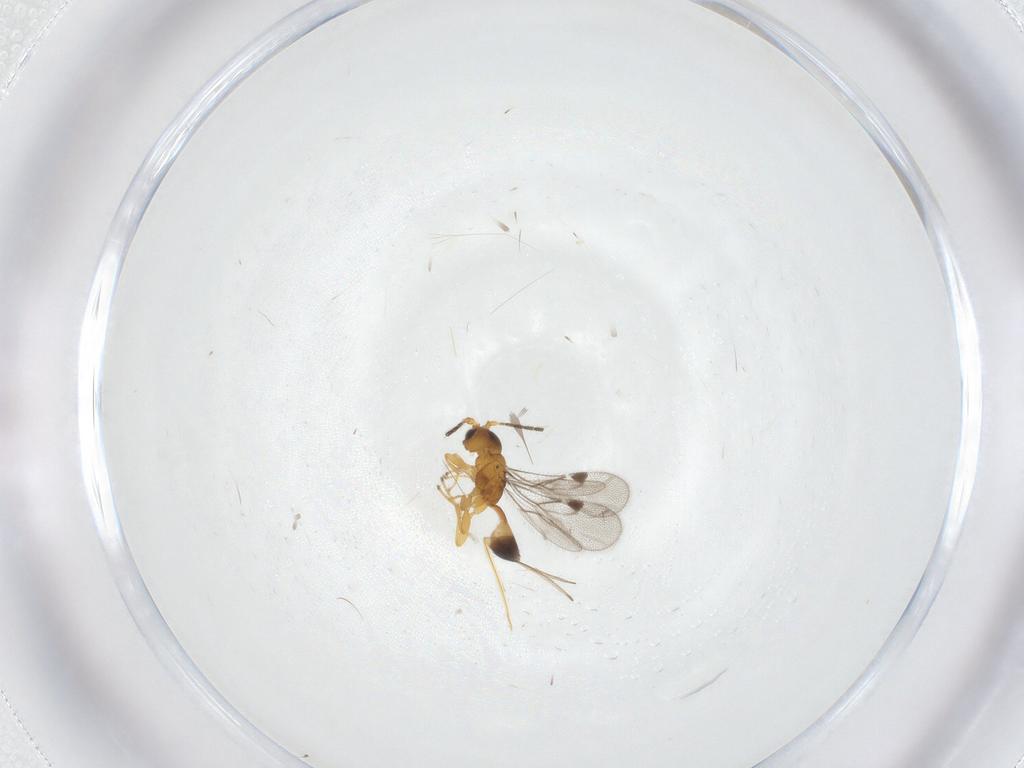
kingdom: Animalia
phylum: Arthropoda
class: Insecta
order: Hymenoptera
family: Braconidae
